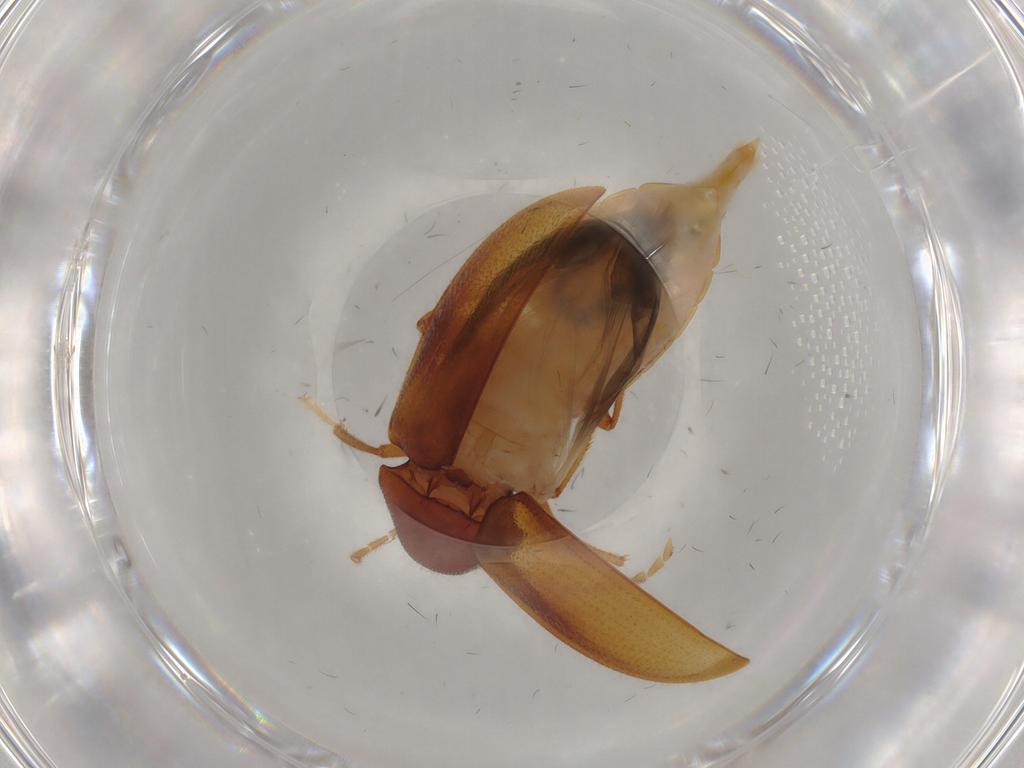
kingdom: Animalia
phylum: Arthropoda
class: Insecta
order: Coleoptera
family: Ptilodactylidae
